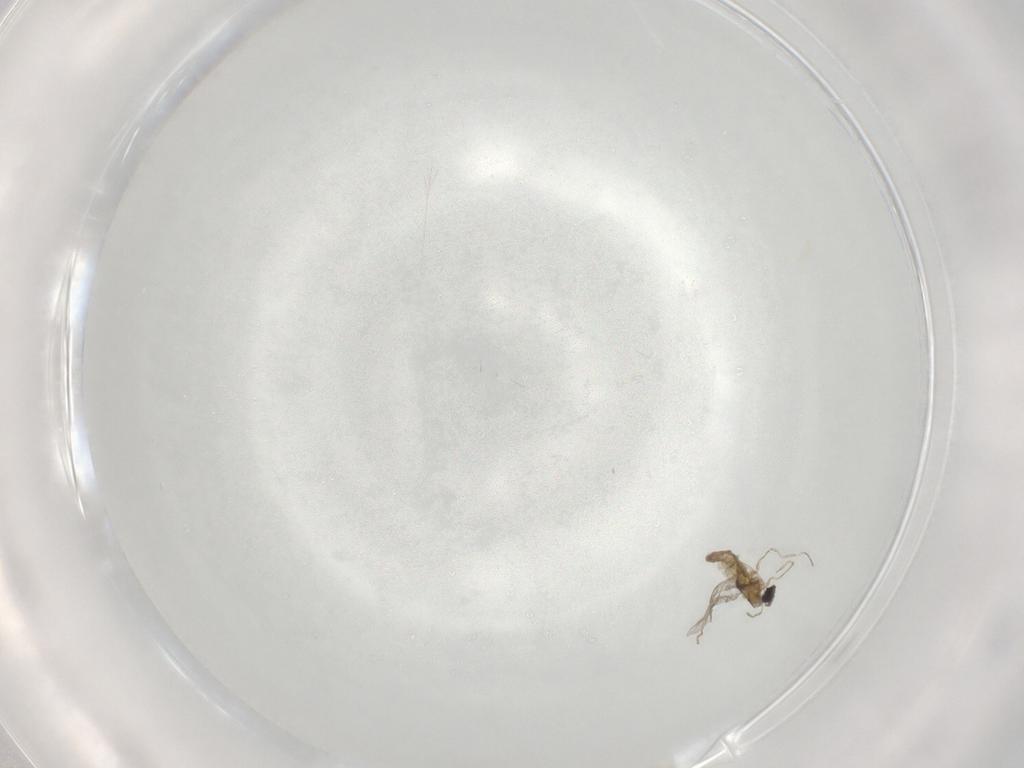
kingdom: Animalia
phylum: Arthropoda
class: Insecta
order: Diptera
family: Cecidomyiidae
